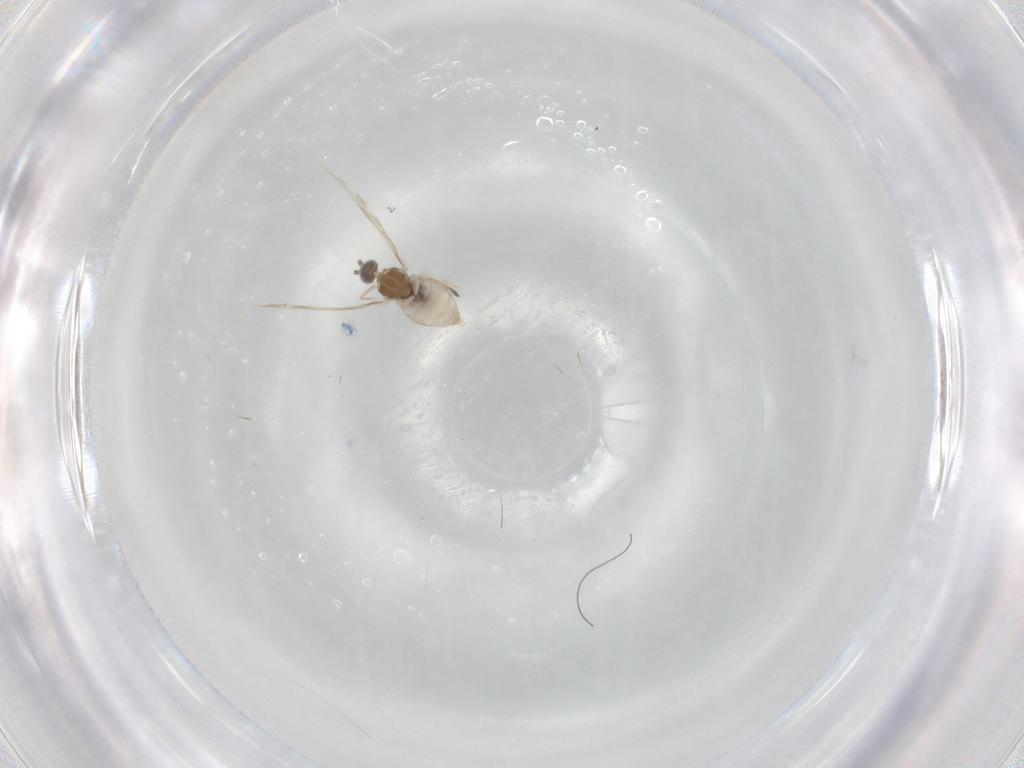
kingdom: Animalia
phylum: Arthropoda
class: Insecta
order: Diptera
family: Cecidomyiidae
